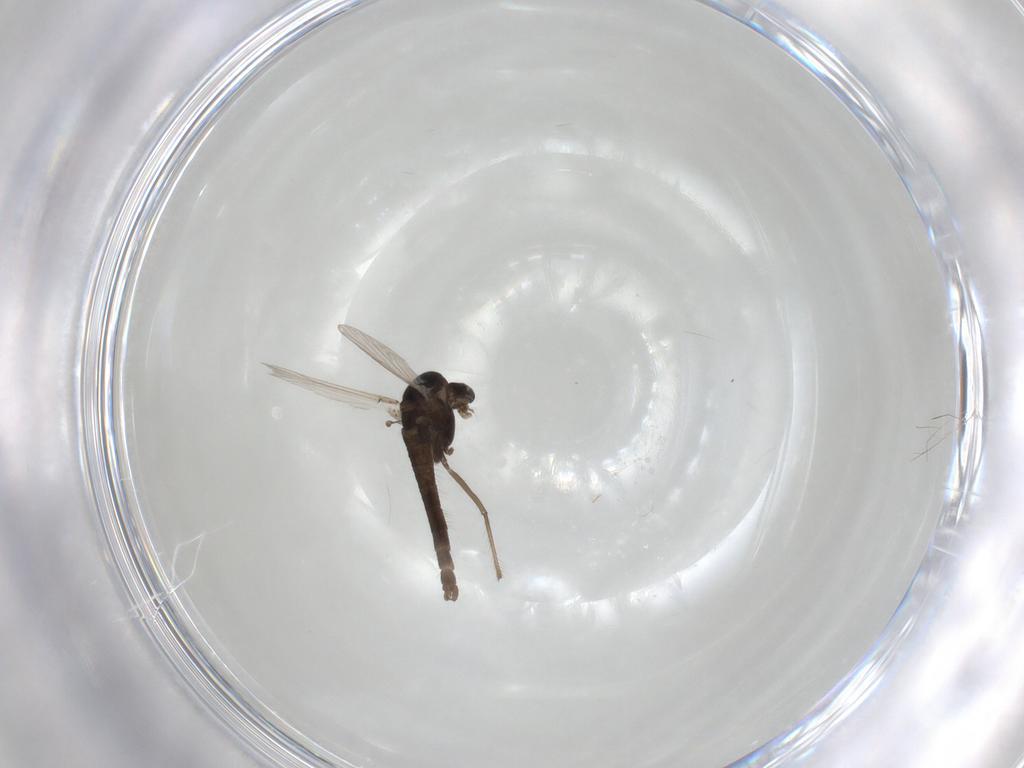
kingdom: Animalia
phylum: Arthropoda
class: Insecta
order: Diptera
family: Chironomidae
